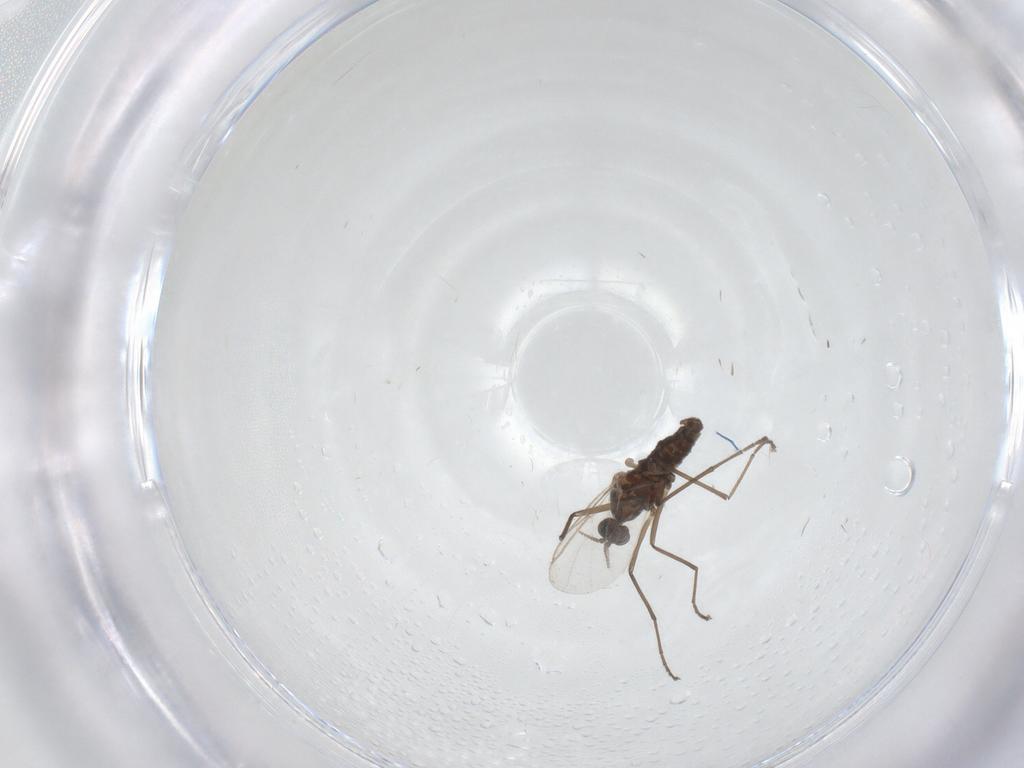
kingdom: Animalia
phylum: Arthropoda
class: Insecta
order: Diptera
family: Cecidomyiidae
